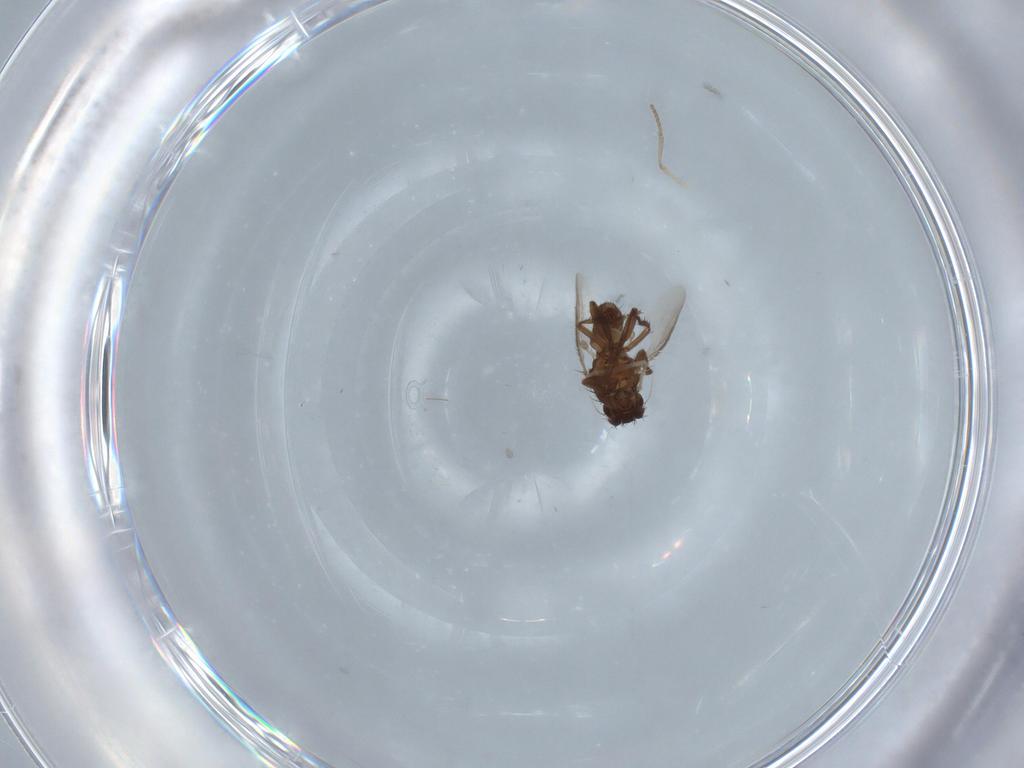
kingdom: Animalia
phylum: Arthropoda
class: Insecta
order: Diptera
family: Sphaeroceridae
